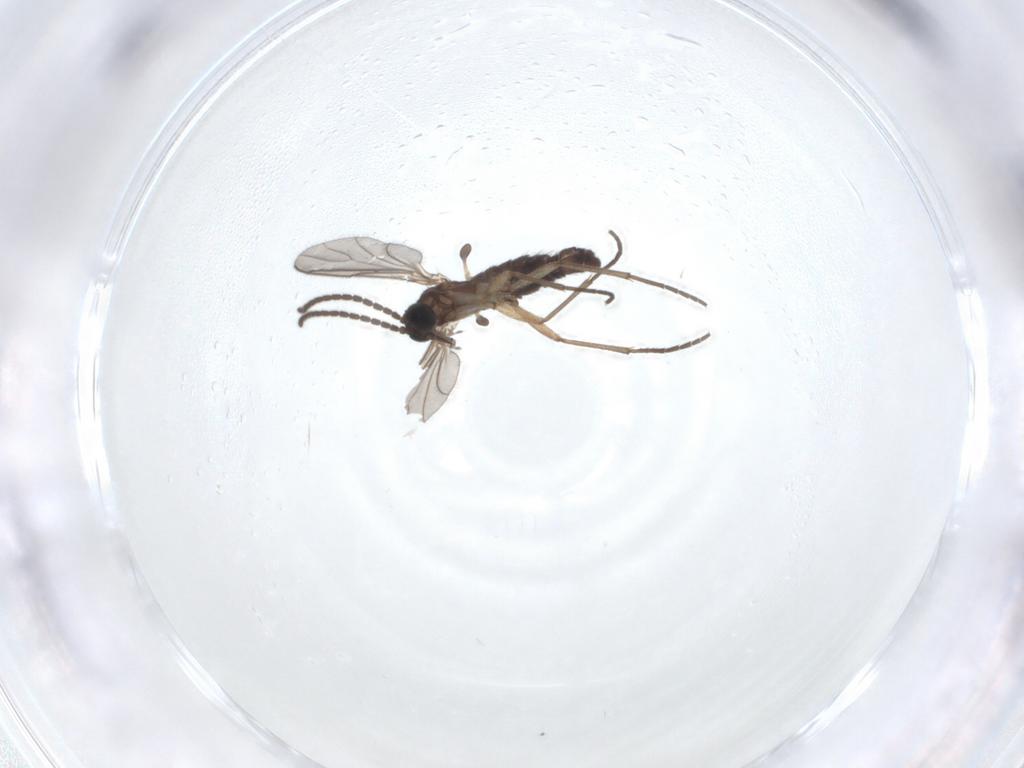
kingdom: Animalia
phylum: Arthropoda
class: Insecta
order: Diptera
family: Sciaridae
